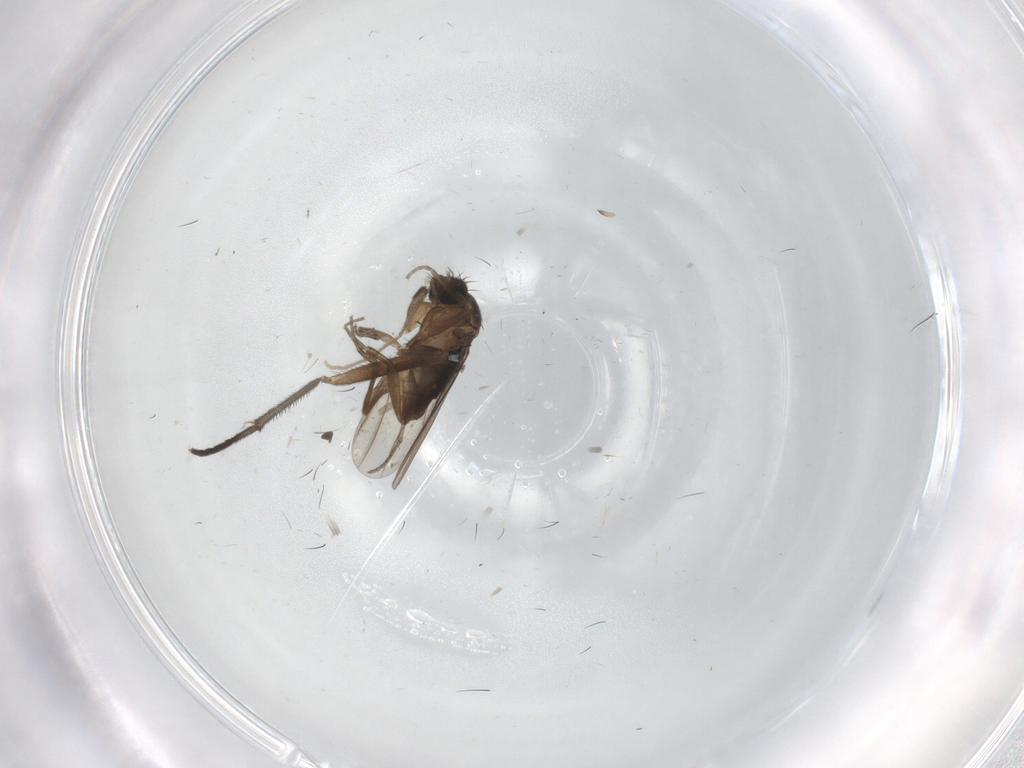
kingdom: Animalia
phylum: Arthropoda
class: Insecta
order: Diptera
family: Phoridae
